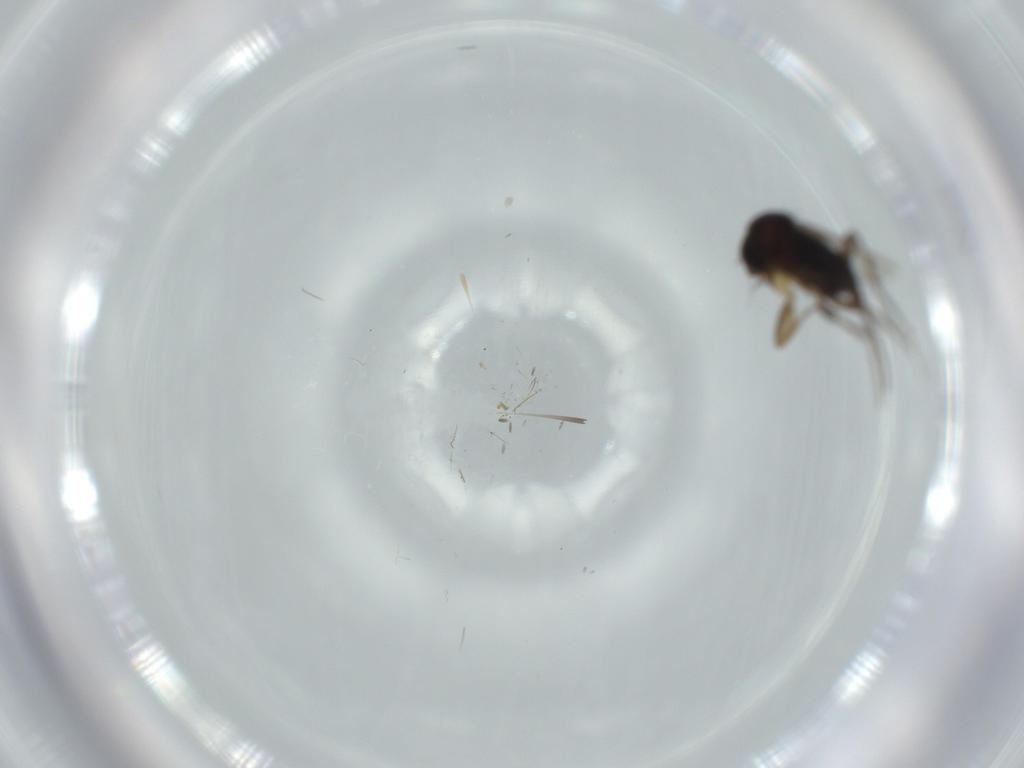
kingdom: Animalia
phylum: Arthropoda
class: Insecta
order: Diptera
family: Phoridae
